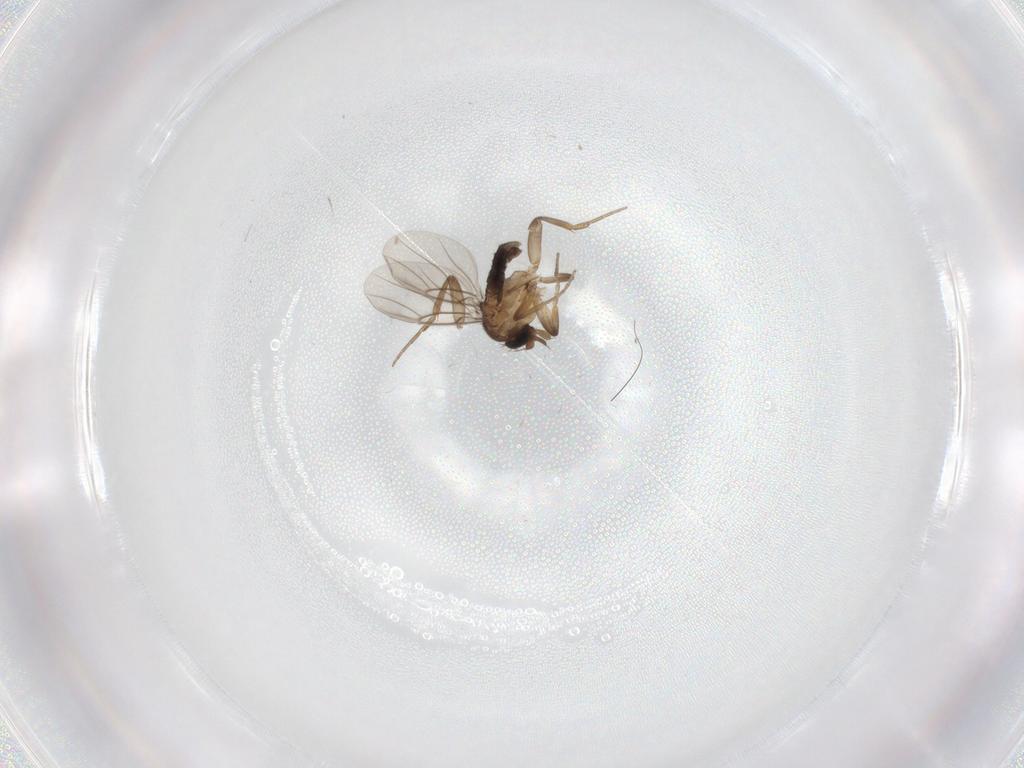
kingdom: Animalia
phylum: Arthropoda
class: Insecta
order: Diptera
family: Phoridae
